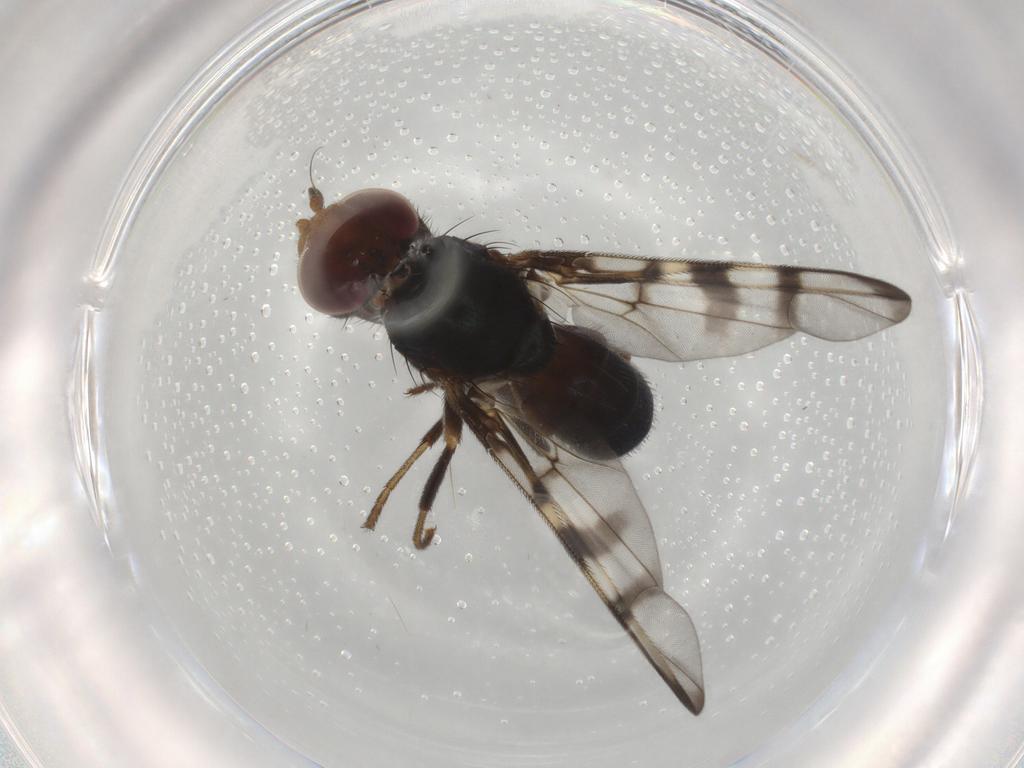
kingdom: Animalia
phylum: Arthropoda
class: Insecta
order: Diptera
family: Platystomatidae
